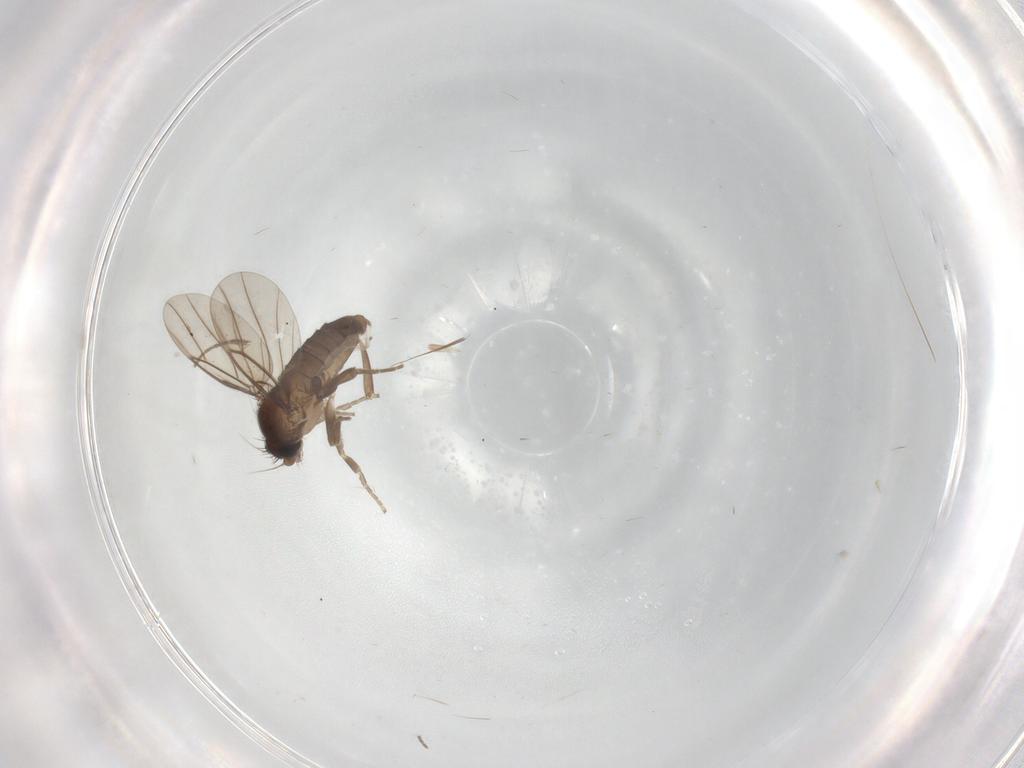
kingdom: Animalia
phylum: Arthropoda
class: Insecta
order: Diptera
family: Phoridae
